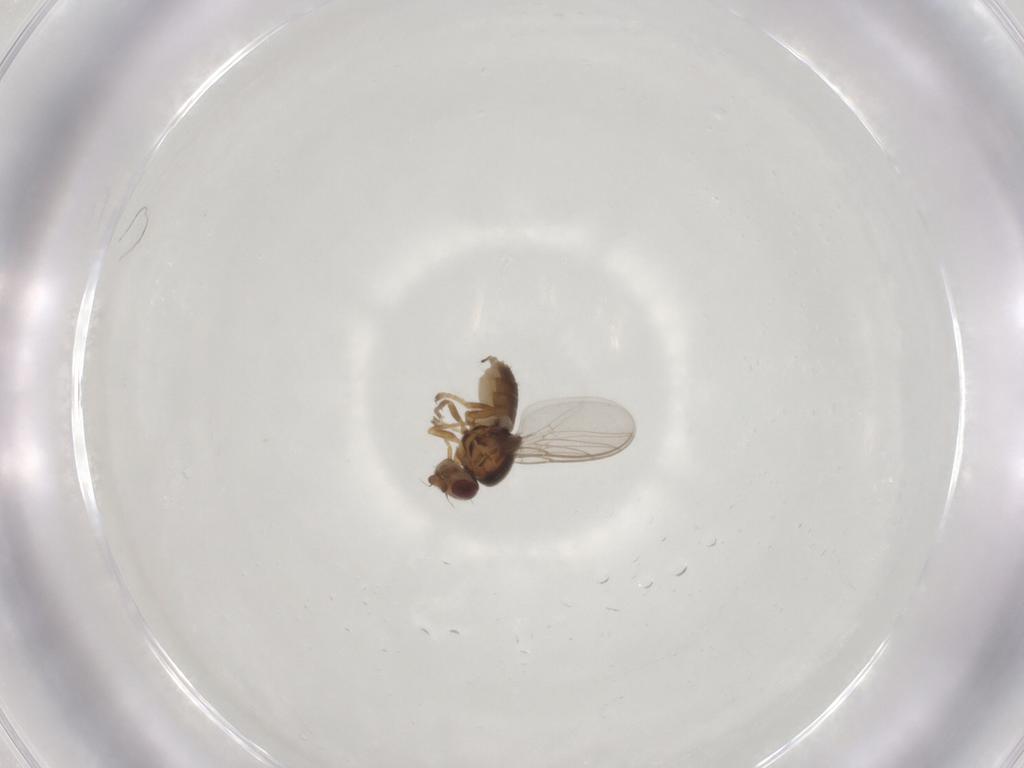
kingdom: Animalia
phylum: Arthropoda
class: Insecta
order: Diptera
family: Chloropidae
